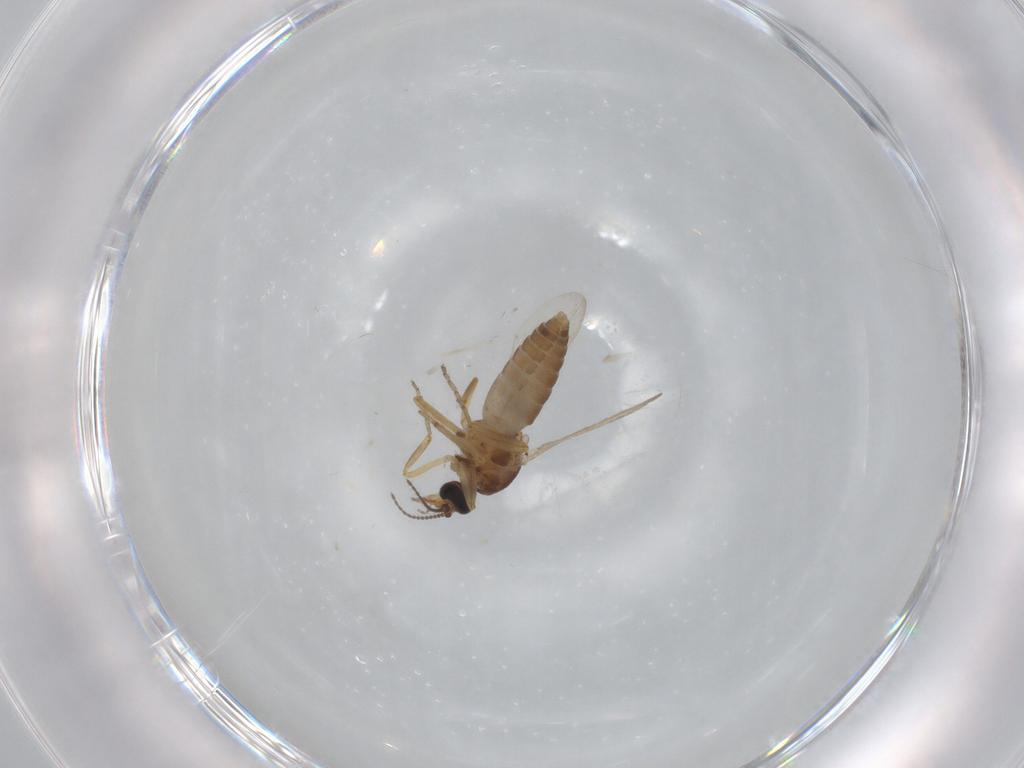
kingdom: Animalia
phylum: Arthropoda
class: Insecta
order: Diptera
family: Ceratopogonidae
